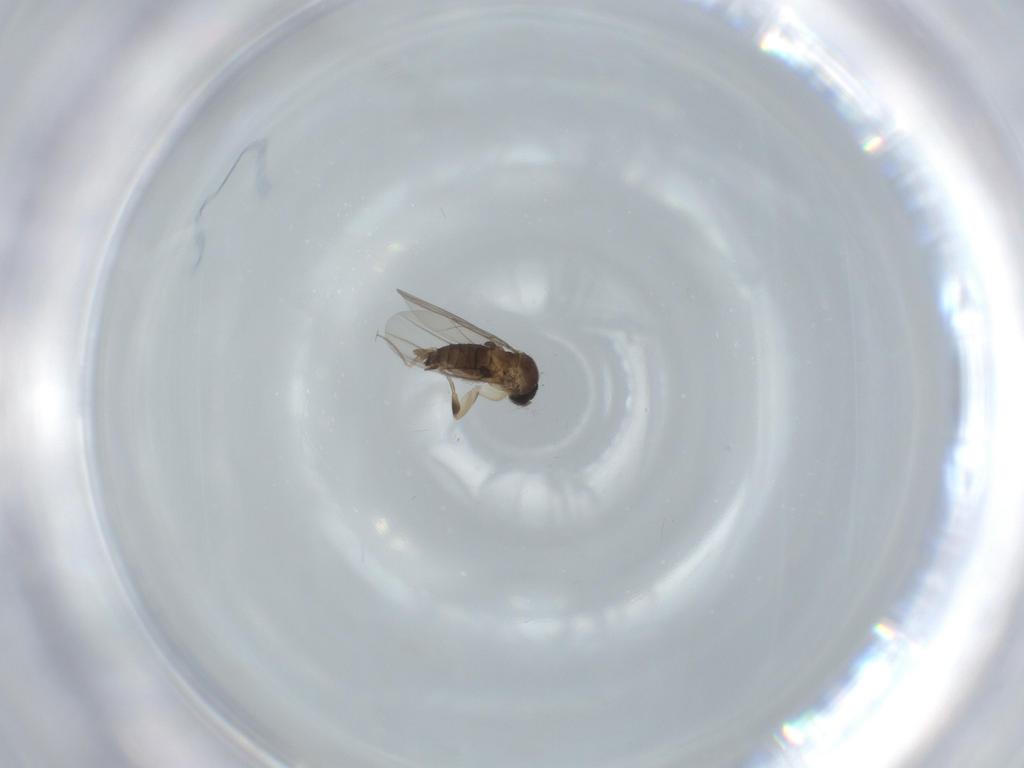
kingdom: Animalia
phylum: Arthropoda
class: Insecta
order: Diptera
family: Phoridae
